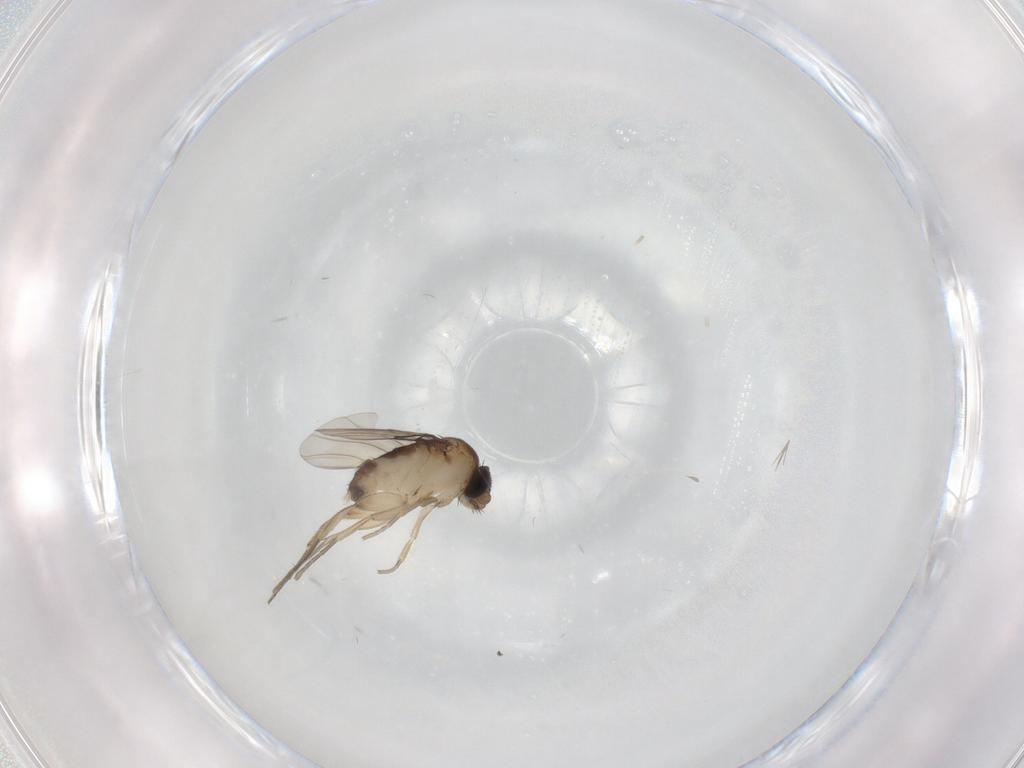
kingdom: Animalia
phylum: Arthropoda
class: Insecta
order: Diptera
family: Phoridae
